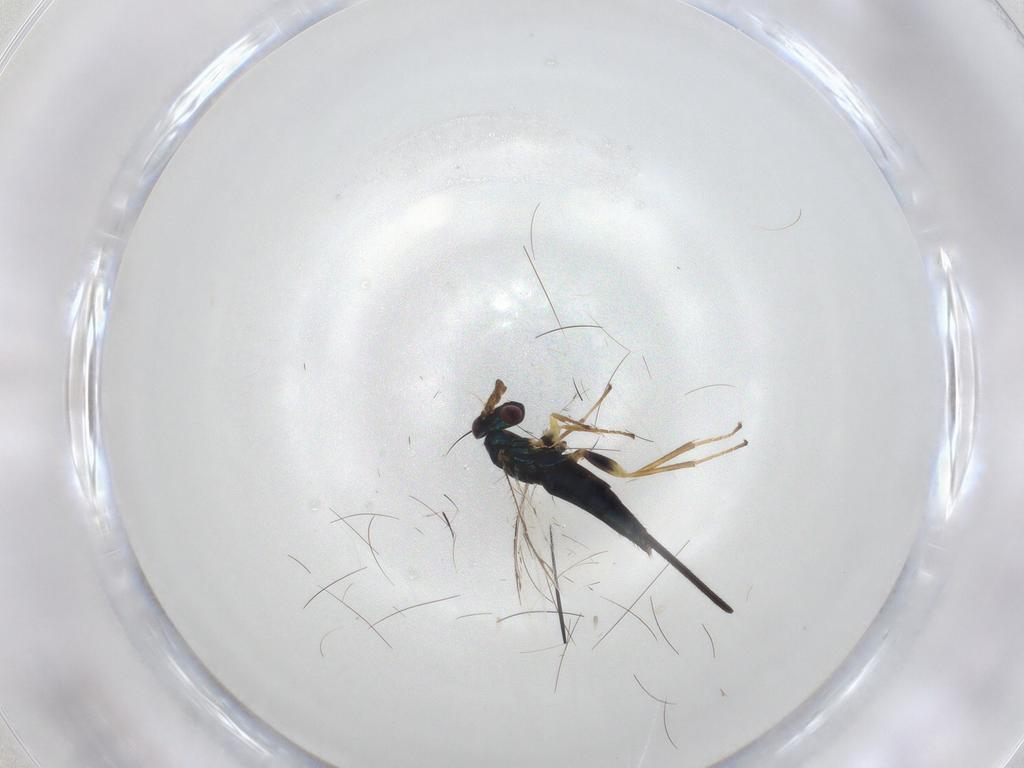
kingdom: Animalia
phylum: Arthropoda
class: Insecta
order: Hymenoptera
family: Pirenidae
